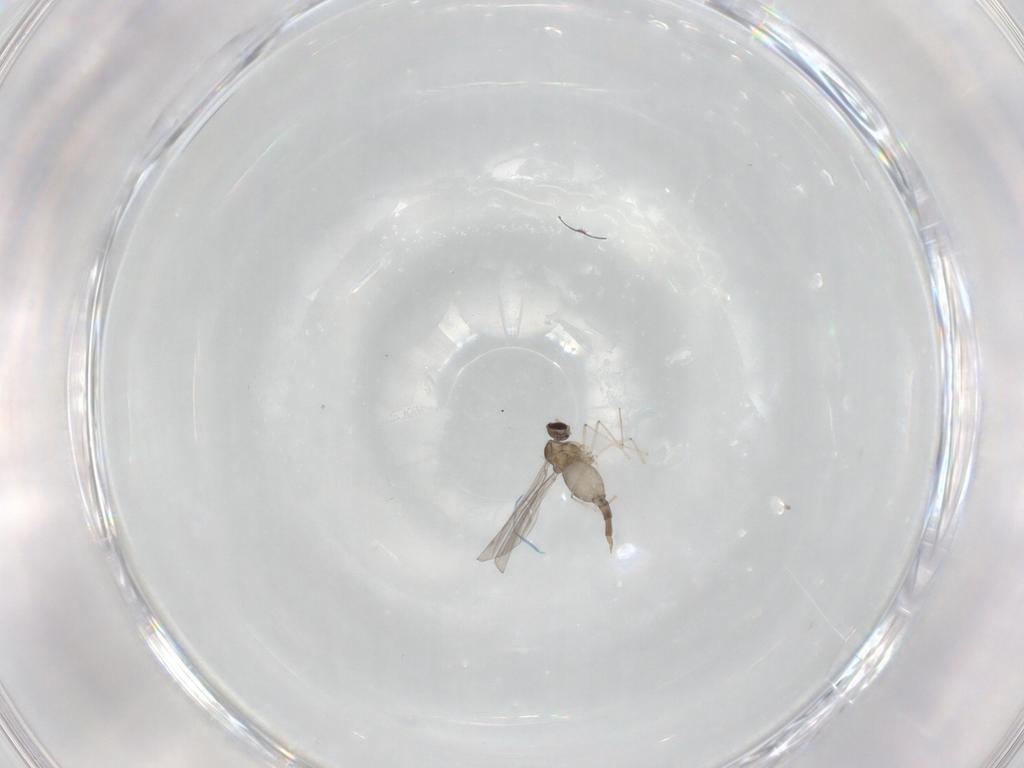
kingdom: Animalia
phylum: Arthropoda
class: Insecta
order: Diptera
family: Cecidomyiidae
